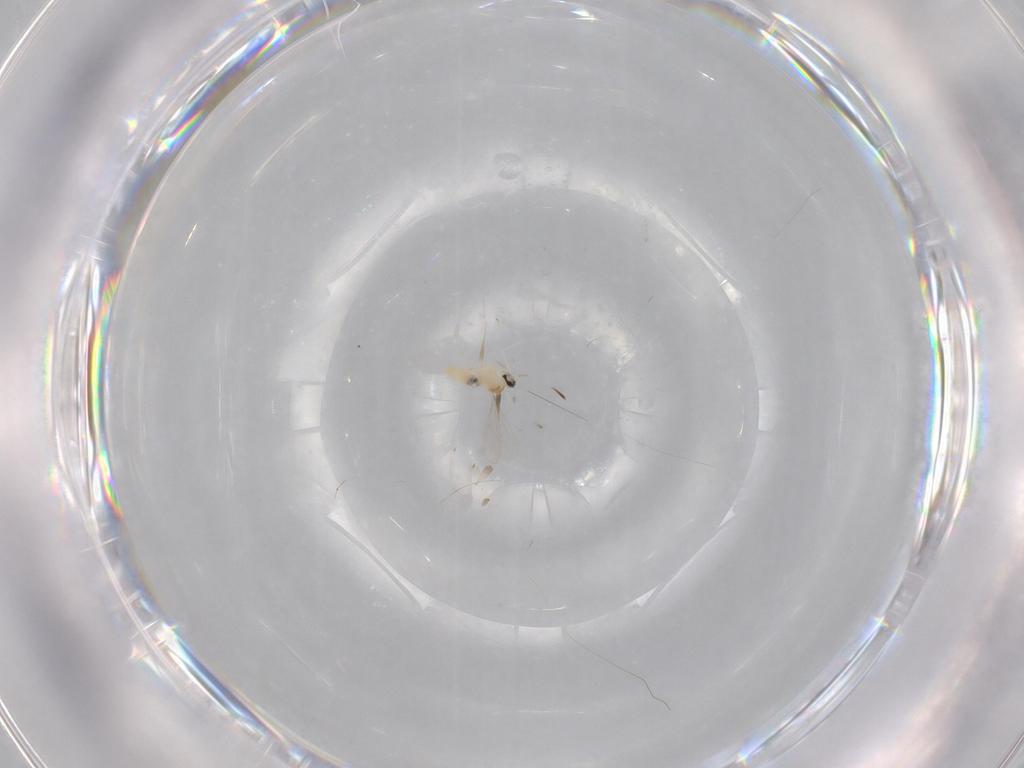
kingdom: Animalia
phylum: Arthropoda
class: Insecta
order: Diptera
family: Cecidomyiidae
